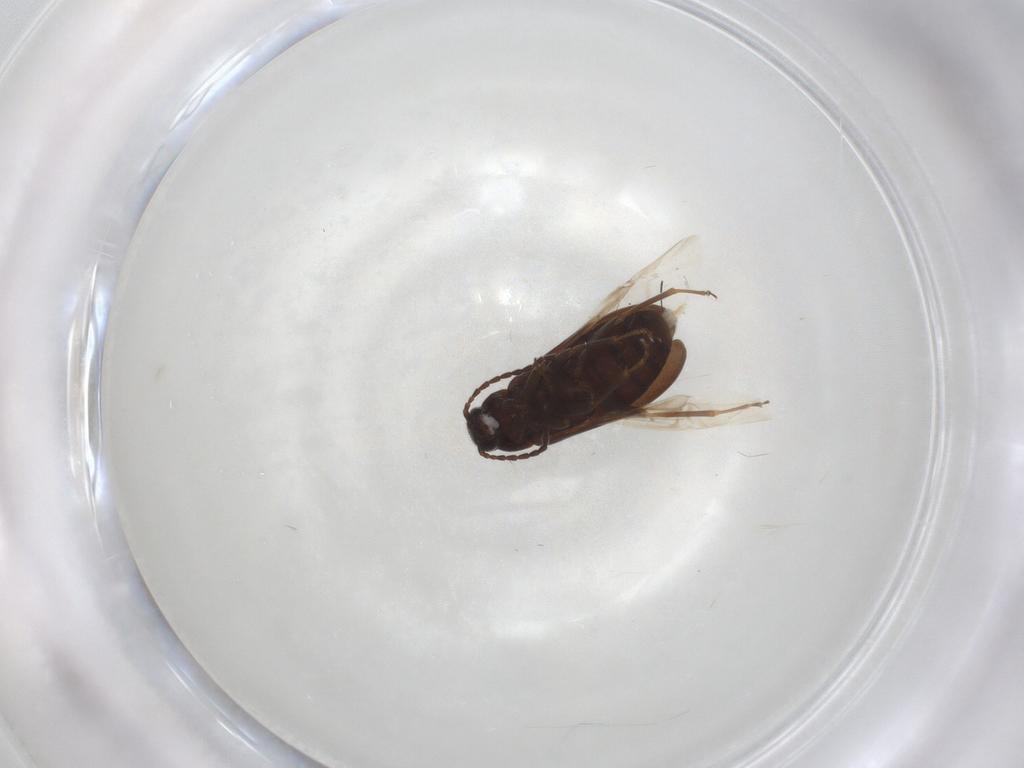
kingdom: Animalia
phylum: Arthropoda
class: Insecta
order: Coleoptera
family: Scraptiidae
